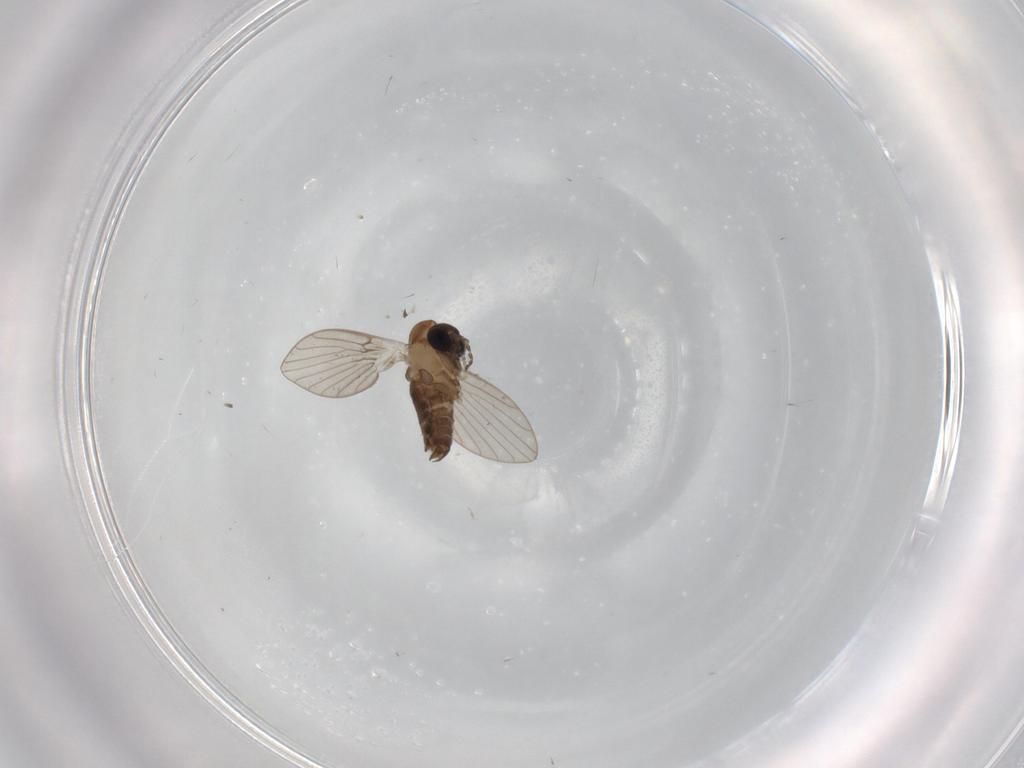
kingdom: Animalia
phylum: Arthropoda
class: Insecta
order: Diptera
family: Psychodidae
